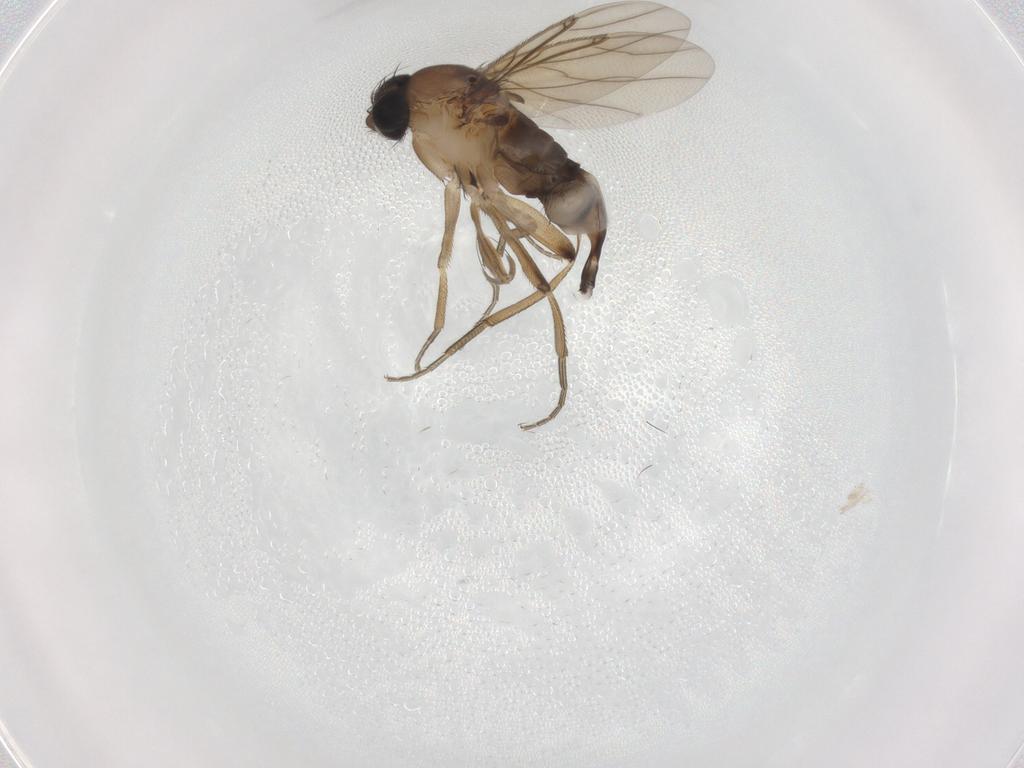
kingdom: Animalia
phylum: Arthropoda
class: Insecta
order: Diptera
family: Phoridae
